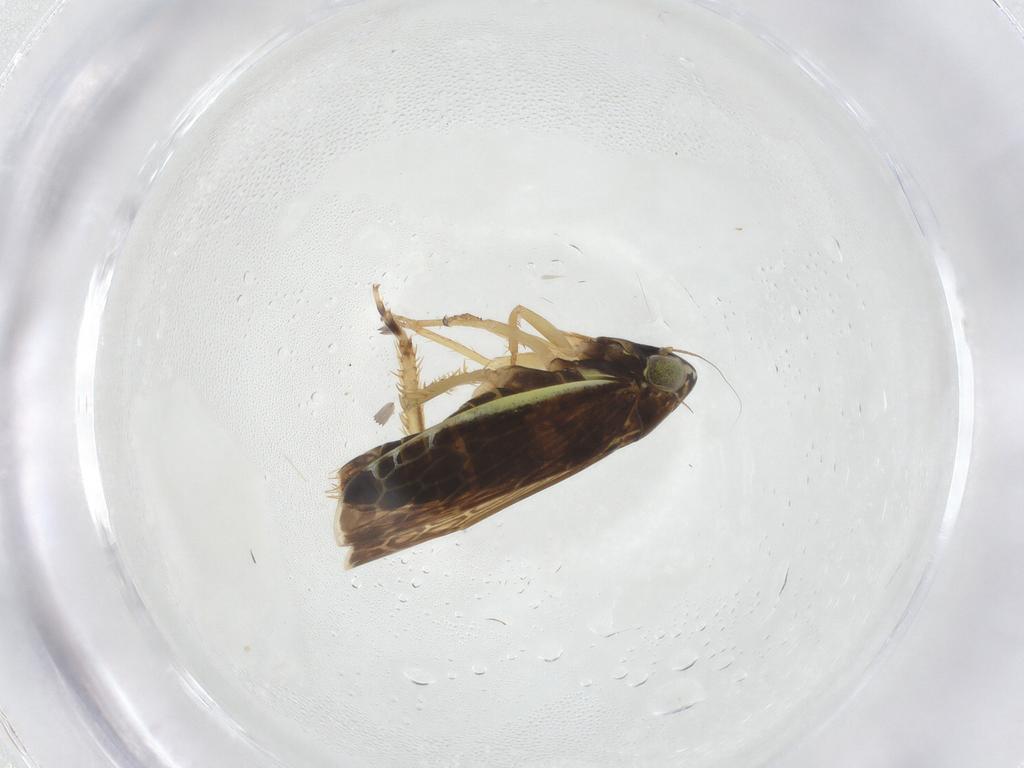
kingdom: Animalia
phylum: Arthropoda
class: Insecta
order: Hemiptera
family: Cicadellidae
